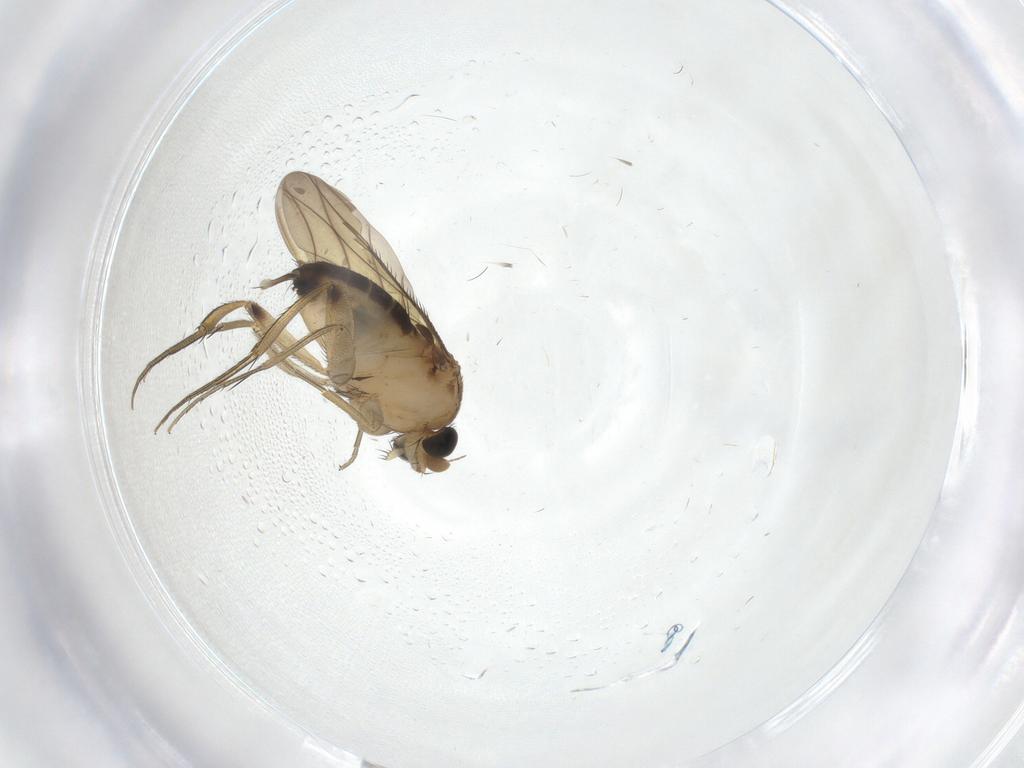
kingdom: Animalia
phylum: Arthropoda
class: Insecta
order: Diptera
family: Phoridae
